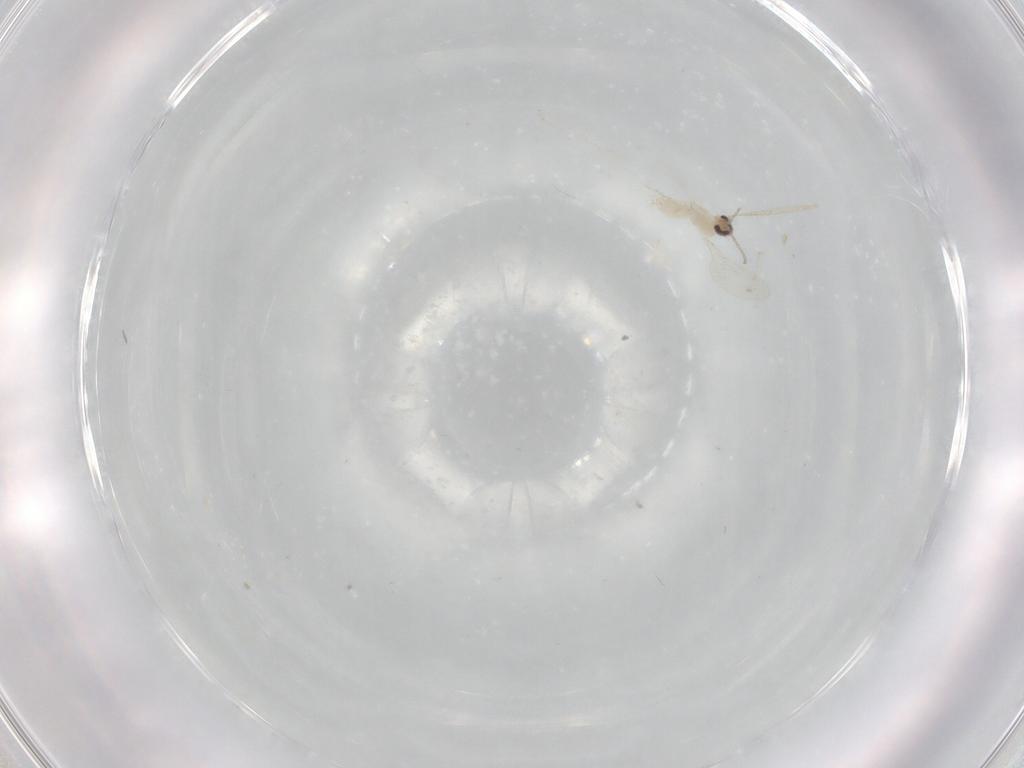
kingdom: Animalia
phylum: Arthropoda
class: Insecta
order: Diptera
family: Cecidomyiidae
